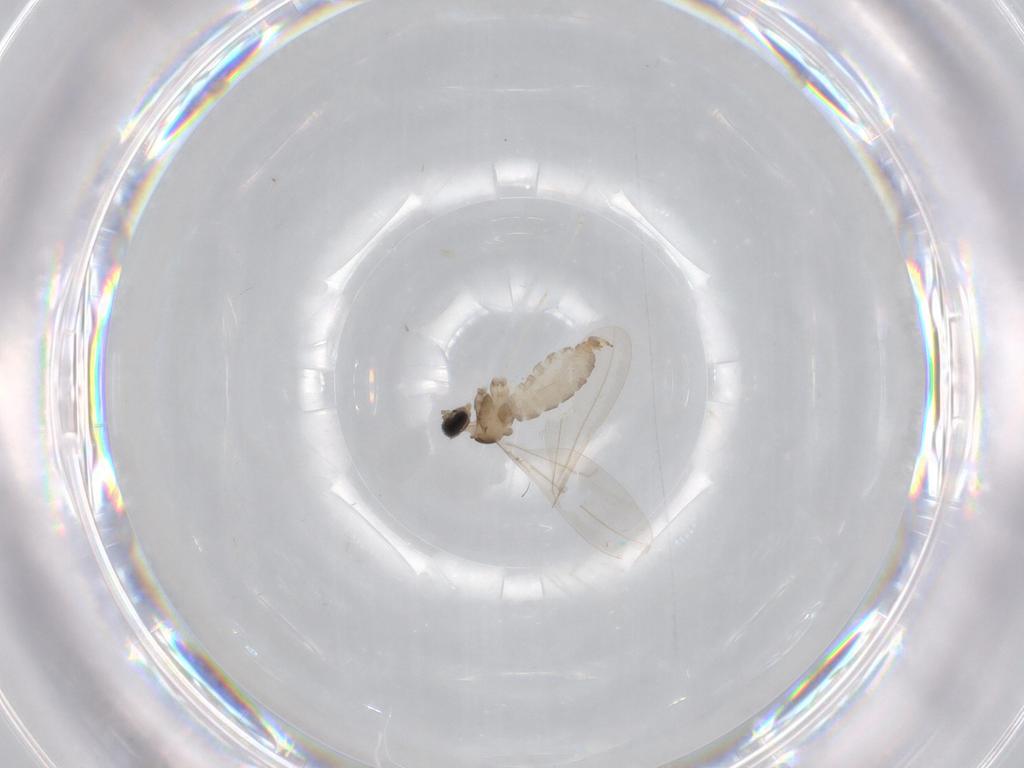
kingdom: Animalia
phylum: Arthropoda
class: Insecta
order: Diptera
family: Cecidomyiidae
